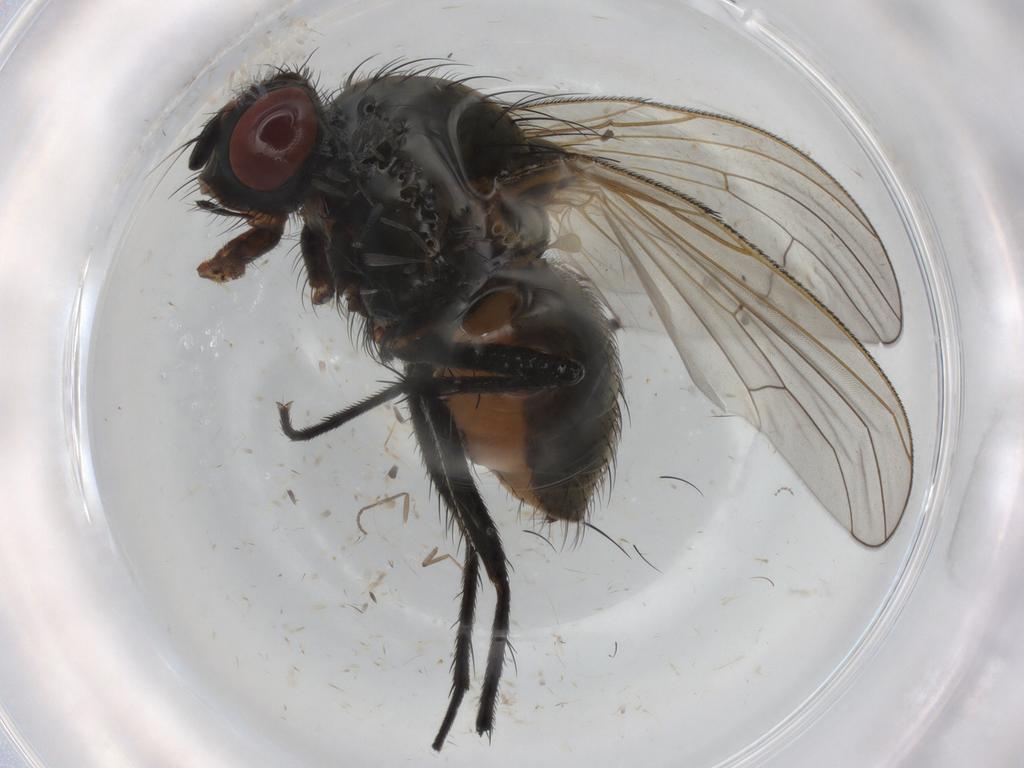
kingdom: Animalia
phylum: Arthropoda
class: Insecta
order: Diptera
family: Anthomyiidae
